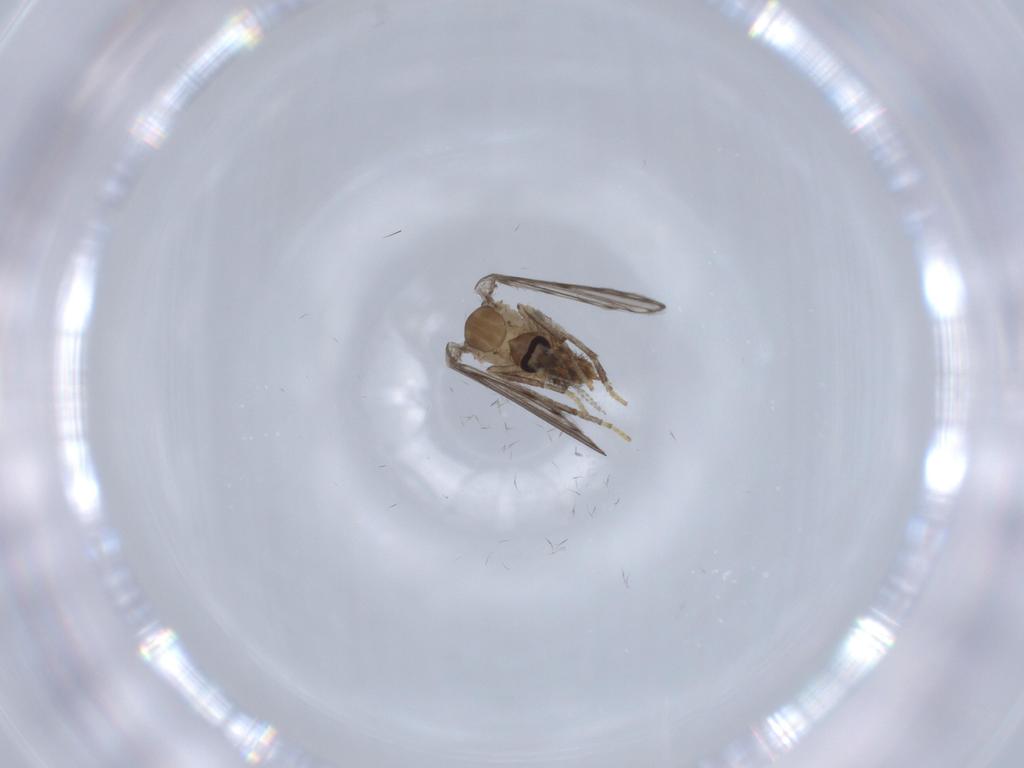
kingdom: Animalia
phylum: Arthropoda
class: Insecta
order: Diptera
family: Psychodidae
